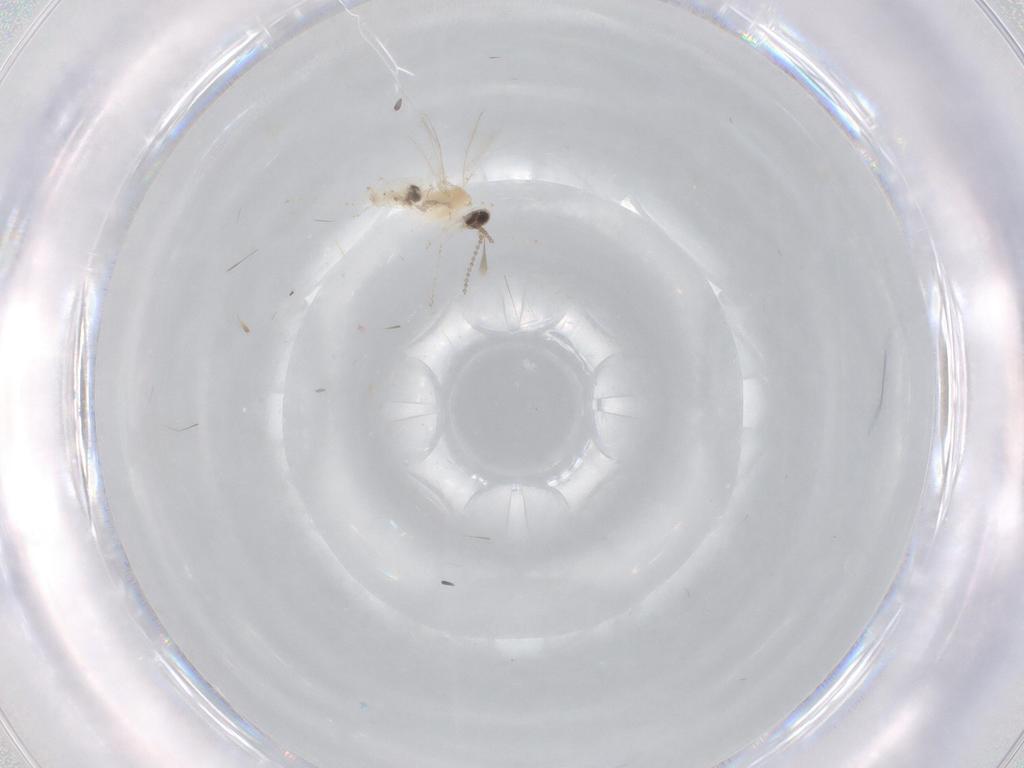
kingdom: Animalia
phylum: Arthropoda
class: Insecta
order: Diptera
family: Cecidomyiidae
